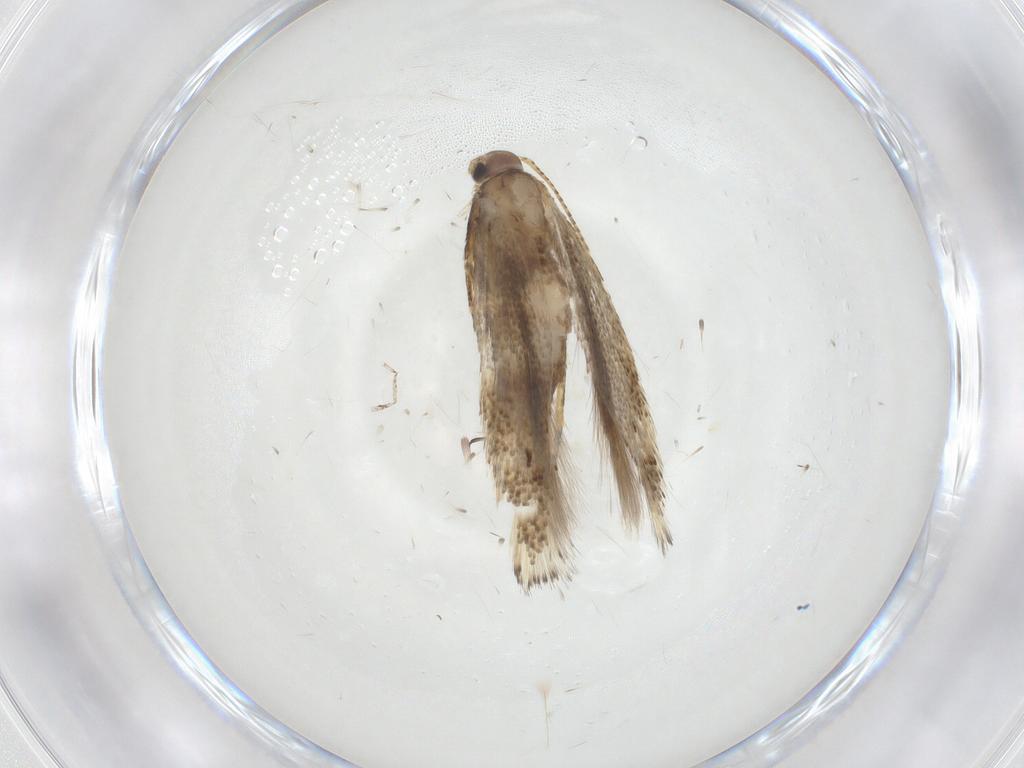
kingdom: Animalia
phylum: Arthropoda
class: Insecta
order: Lepidoptera
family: Elachistidae
